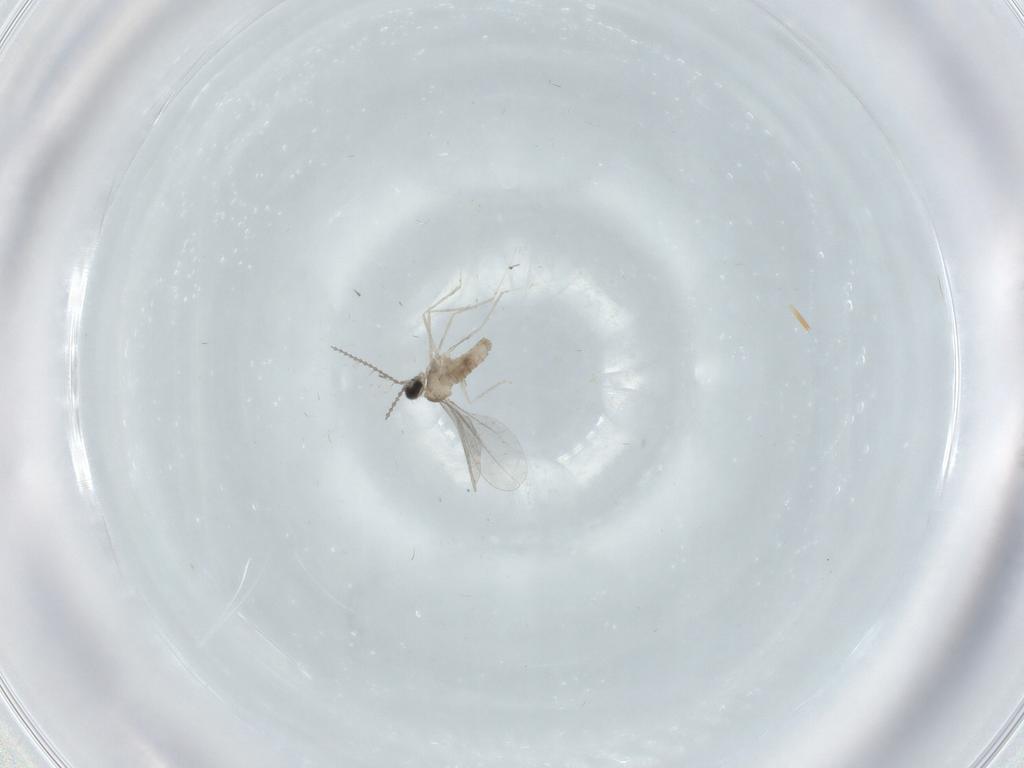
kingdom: Animalia
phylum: Arthropoda
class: Insecta
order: Diptera
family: Cecidomyiidae
